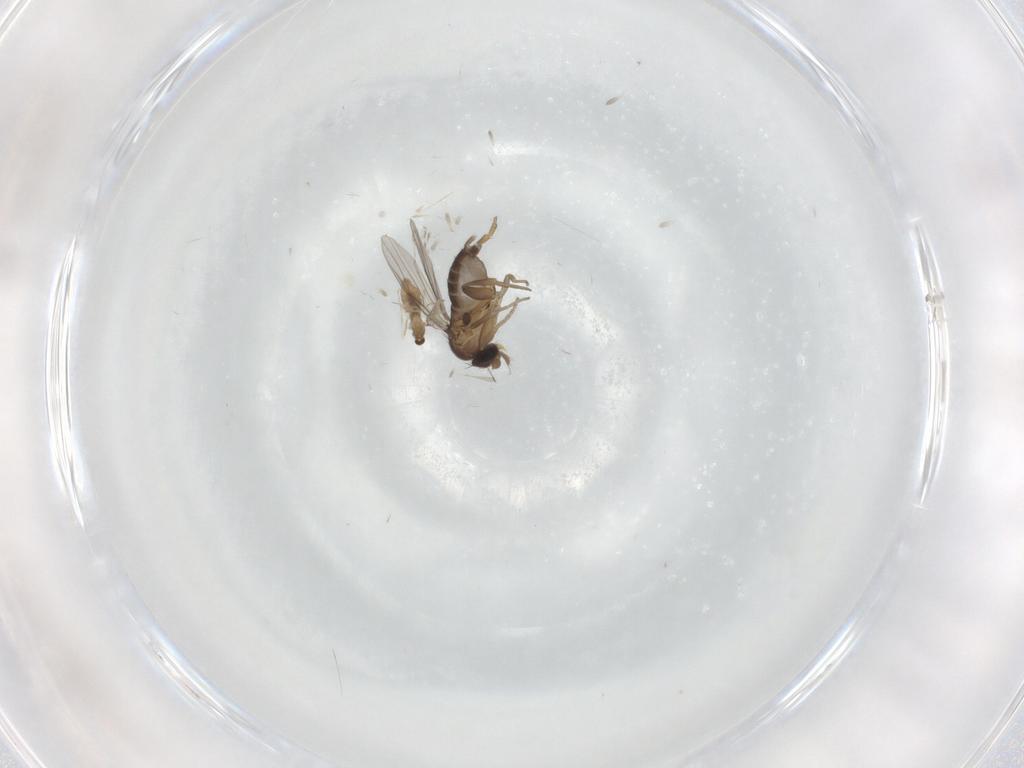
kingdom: Animalia
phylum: Arthropoda
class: Insecta
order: Diptera
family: Cecidomyiidae
